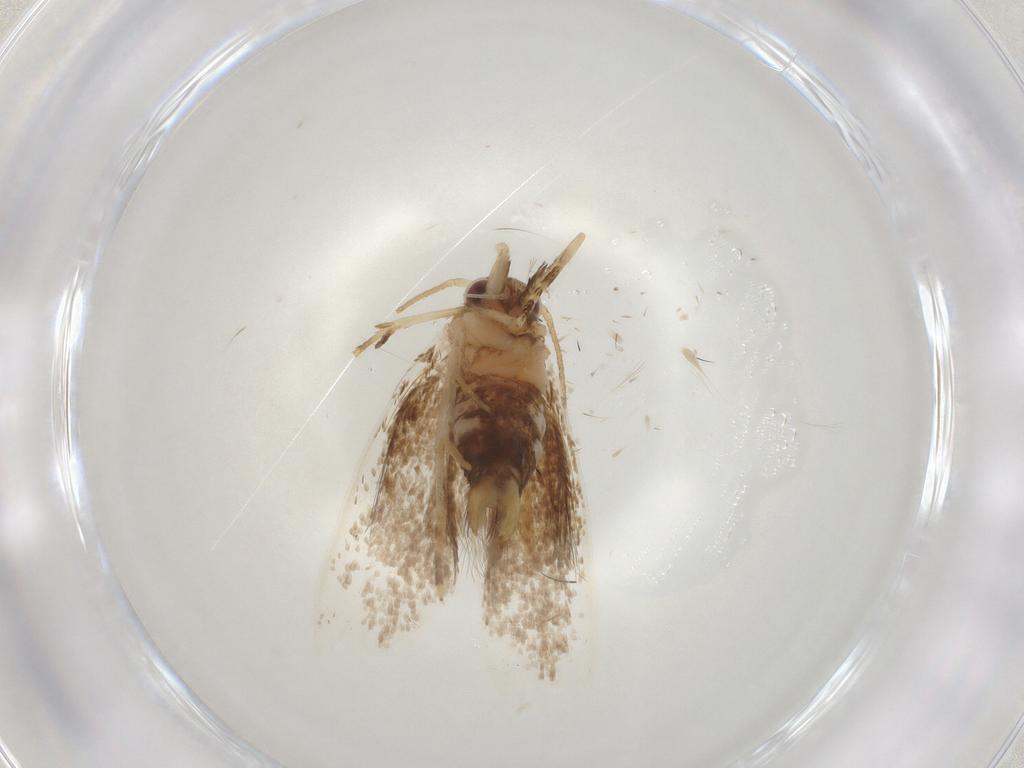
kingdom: Animalia
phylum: Arthropoda
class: Insecta
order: Lepidoptera
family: Oecophoridae
